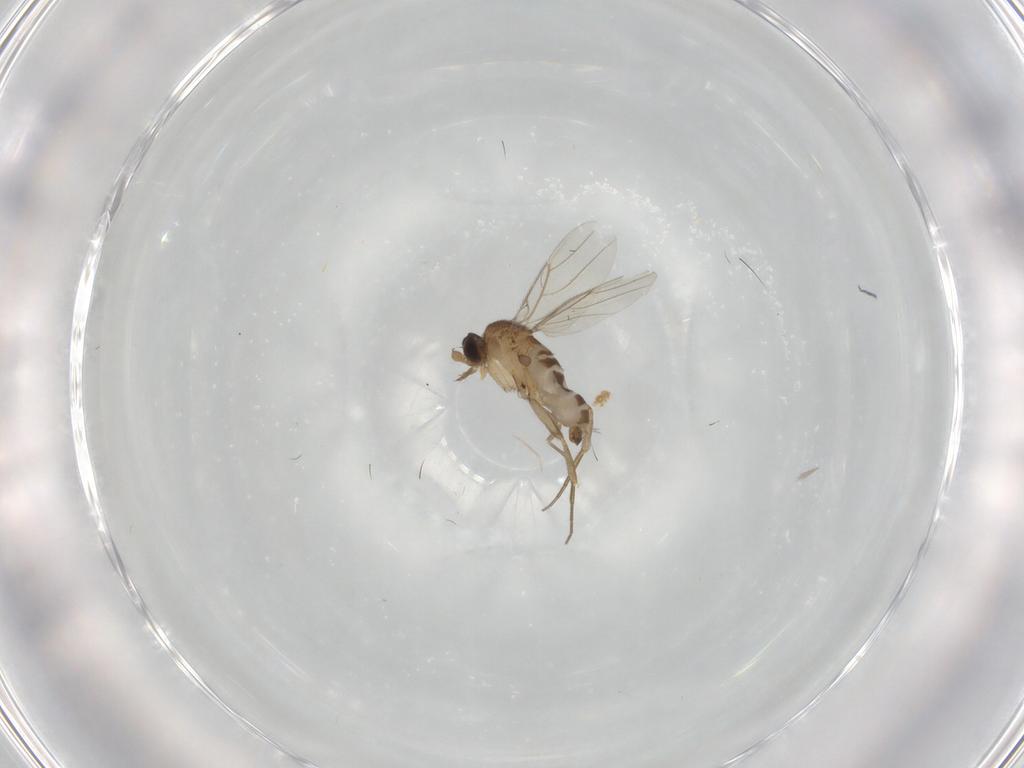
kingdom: Animalia
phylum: Arthropoda
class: Insecta
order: Diptera
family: Phoridae
